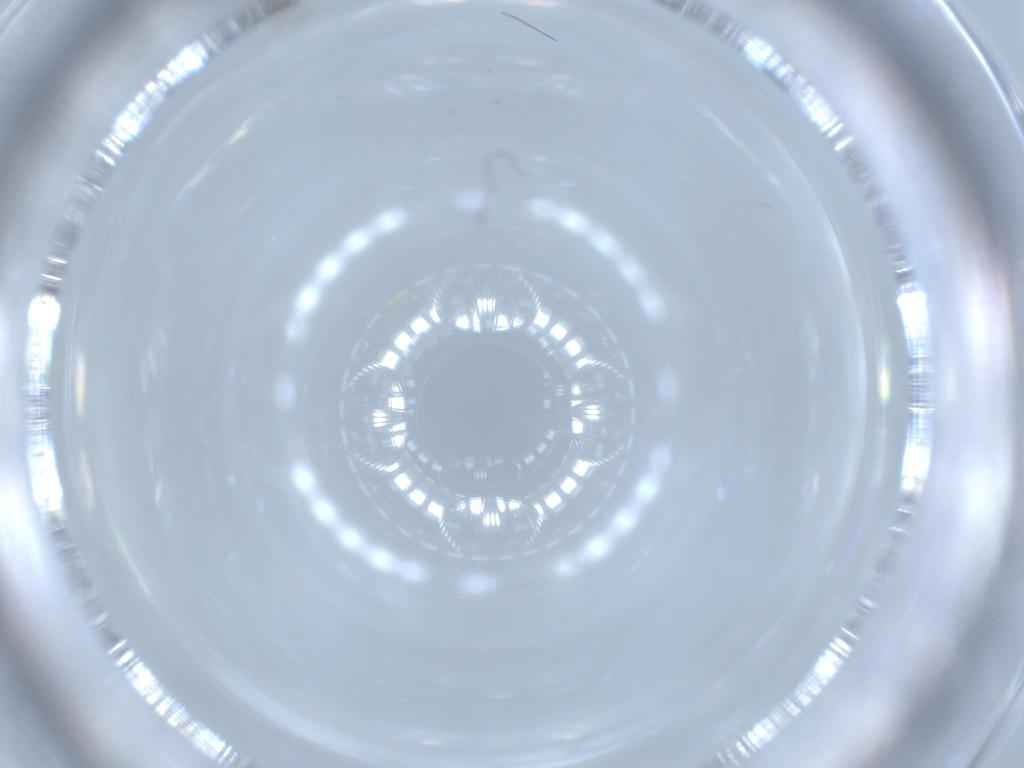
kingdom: Animalia
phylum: Arthropoda
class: Insecta
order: Diptera
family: Cecidomyiidae
